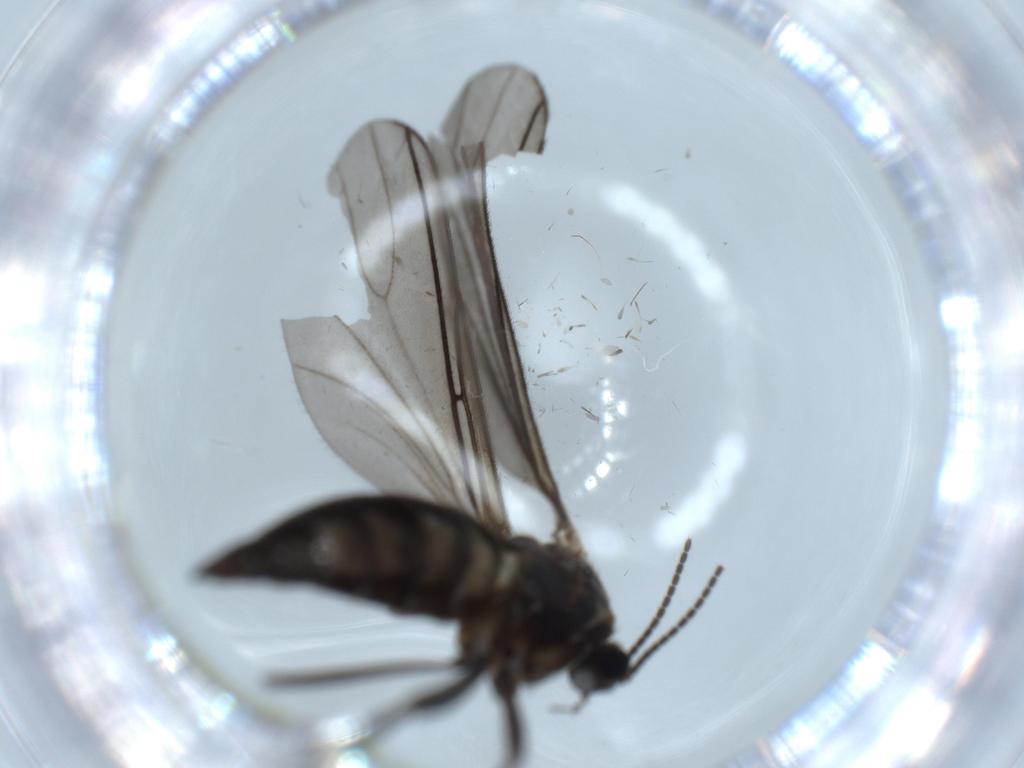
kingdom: Animalia
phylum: Arthropoda
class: Insecta
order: Diptera
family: Sciaridae
